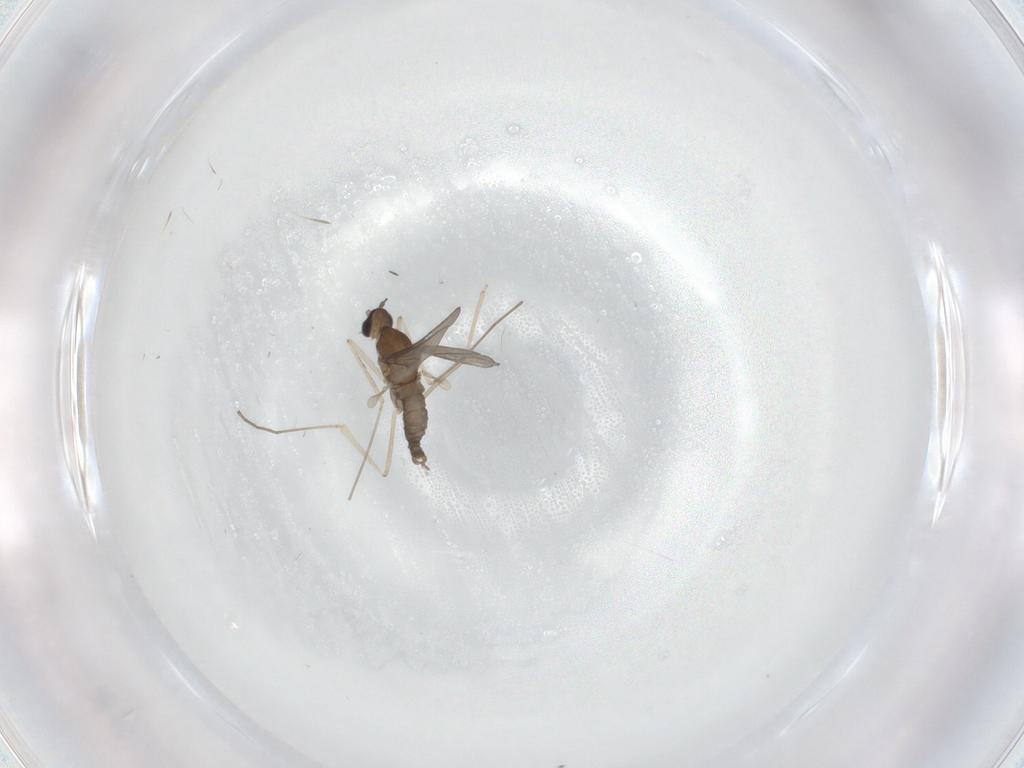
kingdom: Animalia
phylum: Arthropoda
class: Insecta
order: Diptera
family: Cecidomyiidae
